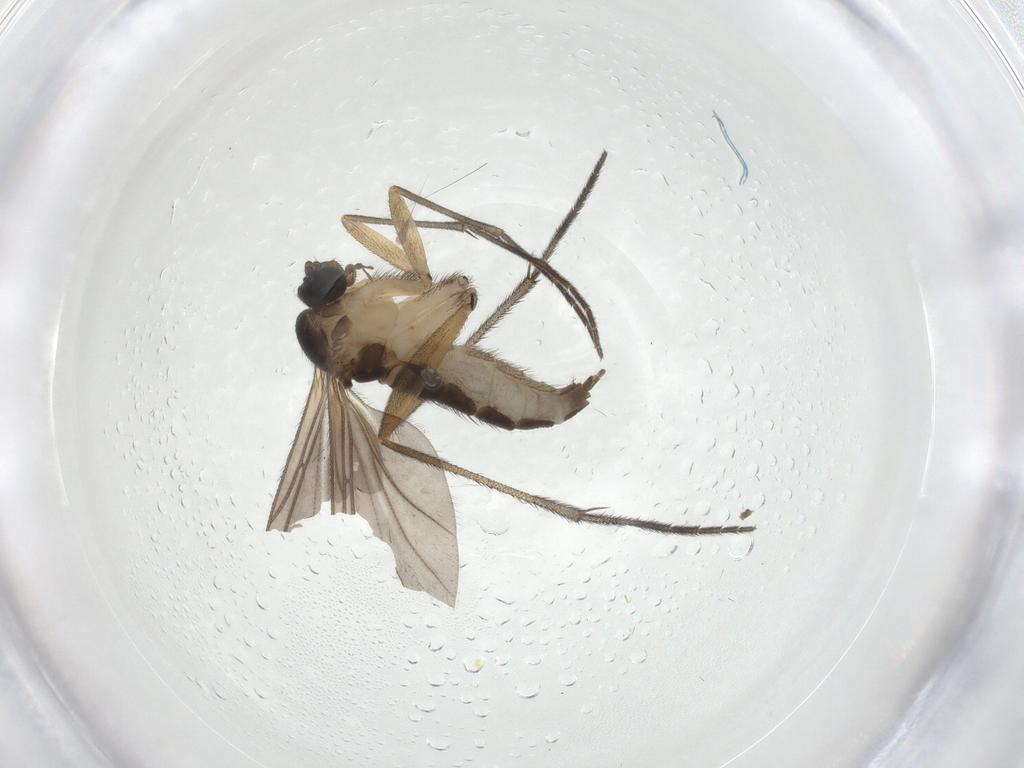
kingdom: Animalia
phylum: Arthropoda
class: Insecta
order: Diptera
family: Sciaridae
